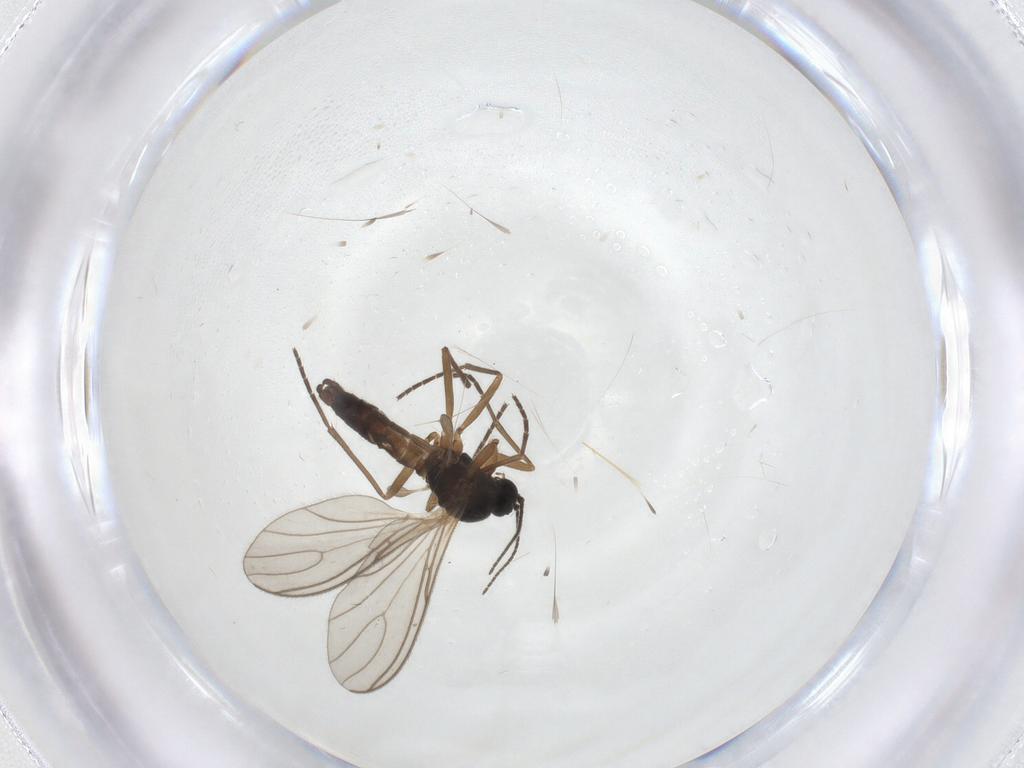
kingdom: Animalia
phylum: Arthropoda
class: Insecta
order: Diptera
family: Sciaridae
